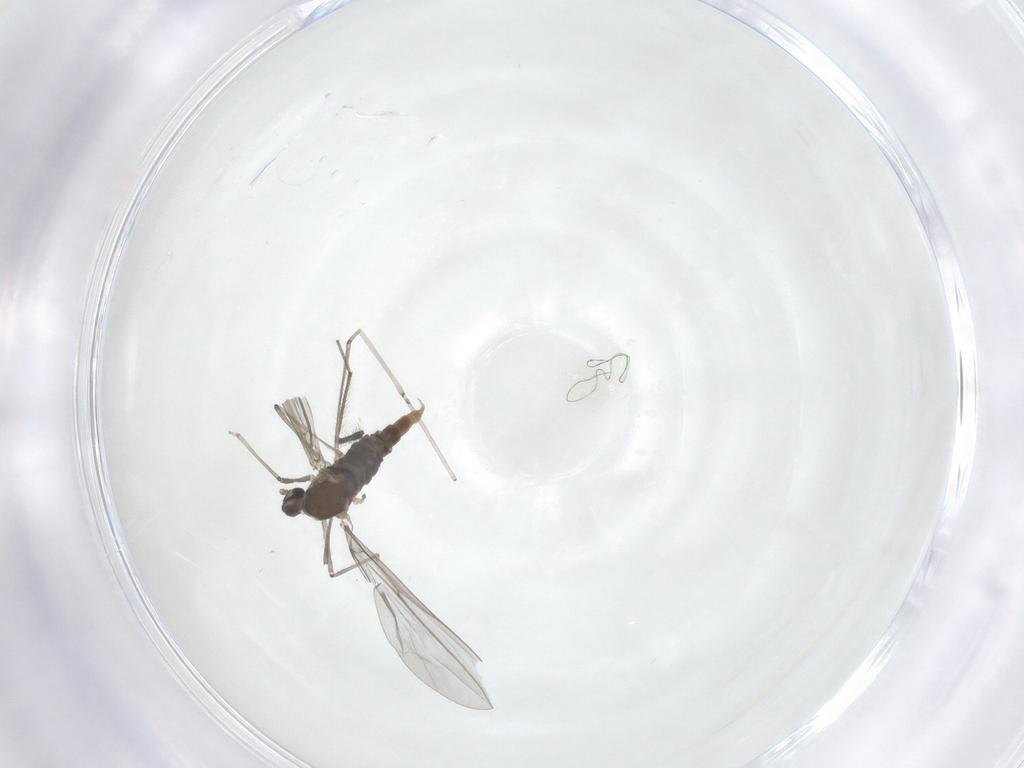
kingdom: Animalia
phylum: Arthropoda
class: Insecta
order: Diptera
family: Cecidomyiidae
